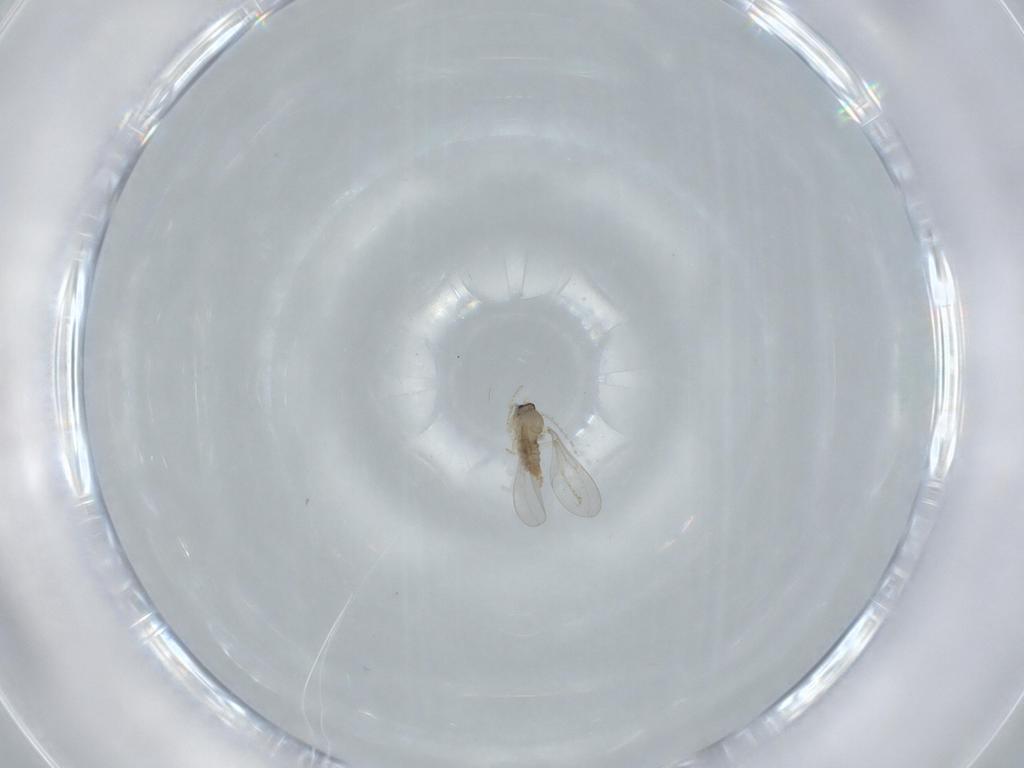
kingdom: Animalia
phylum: Arthropoda
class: Insecta
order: Diptera
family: Cecidomyiidae
